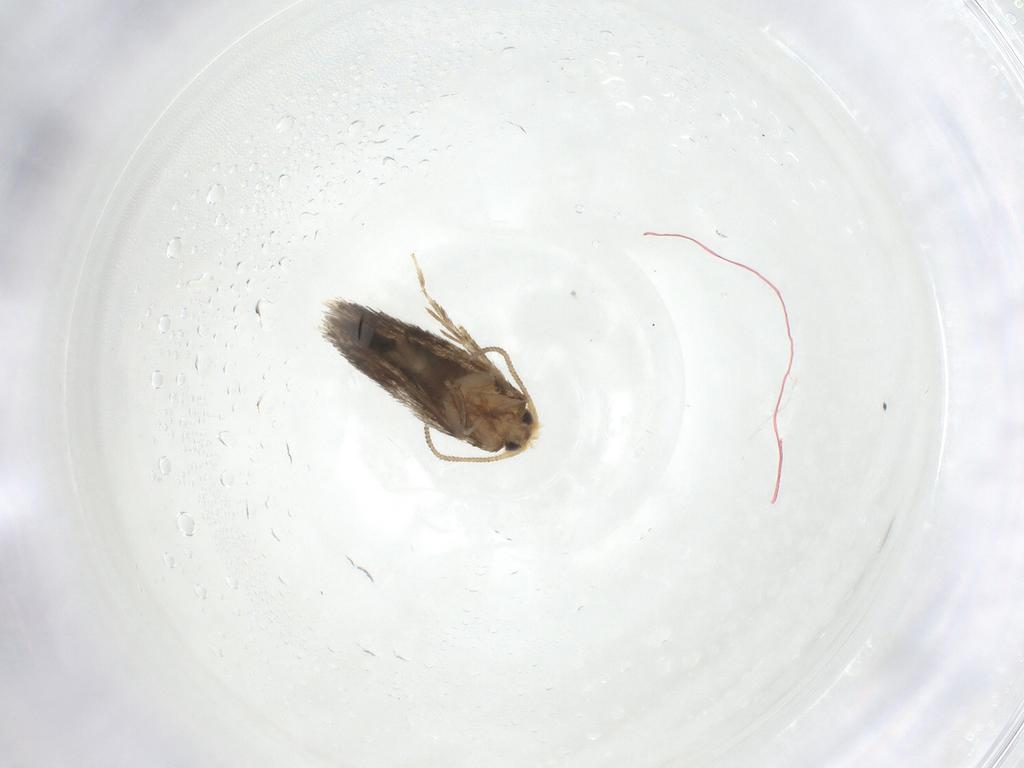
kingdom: Animalia
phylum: Arthropoda
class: Insecta
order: Lepidoptera
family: Nepticulidae
